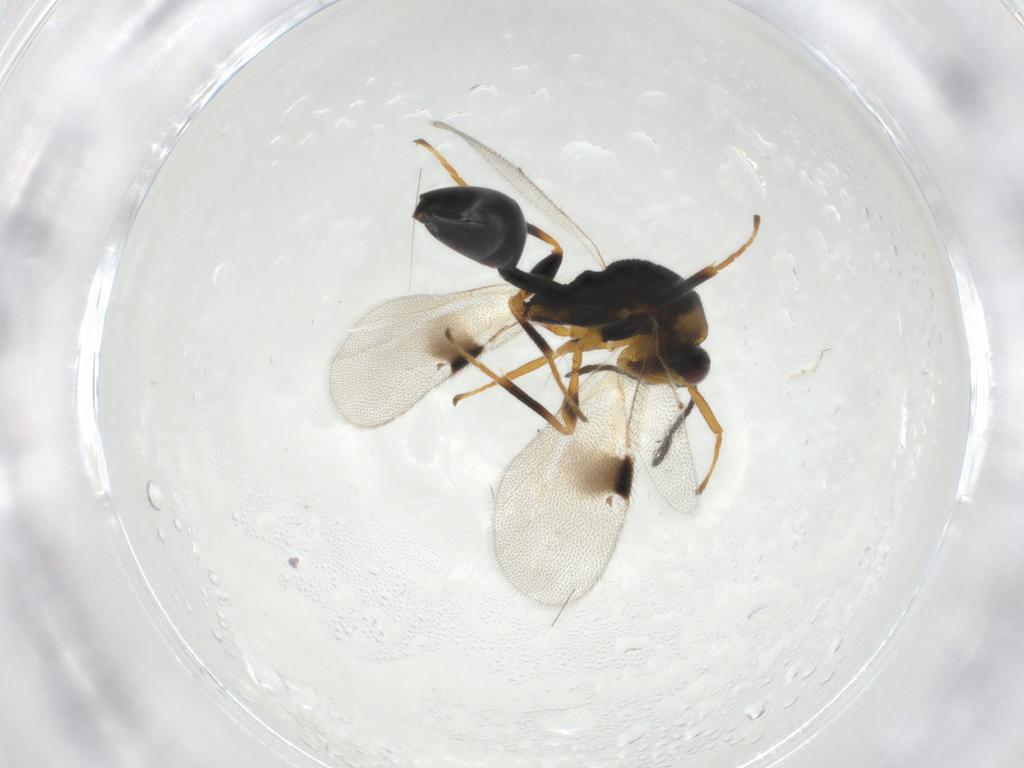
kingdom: Animalia
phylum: Arthropoda
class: Insecta
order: Hymenoptera
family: Eurytomidae
